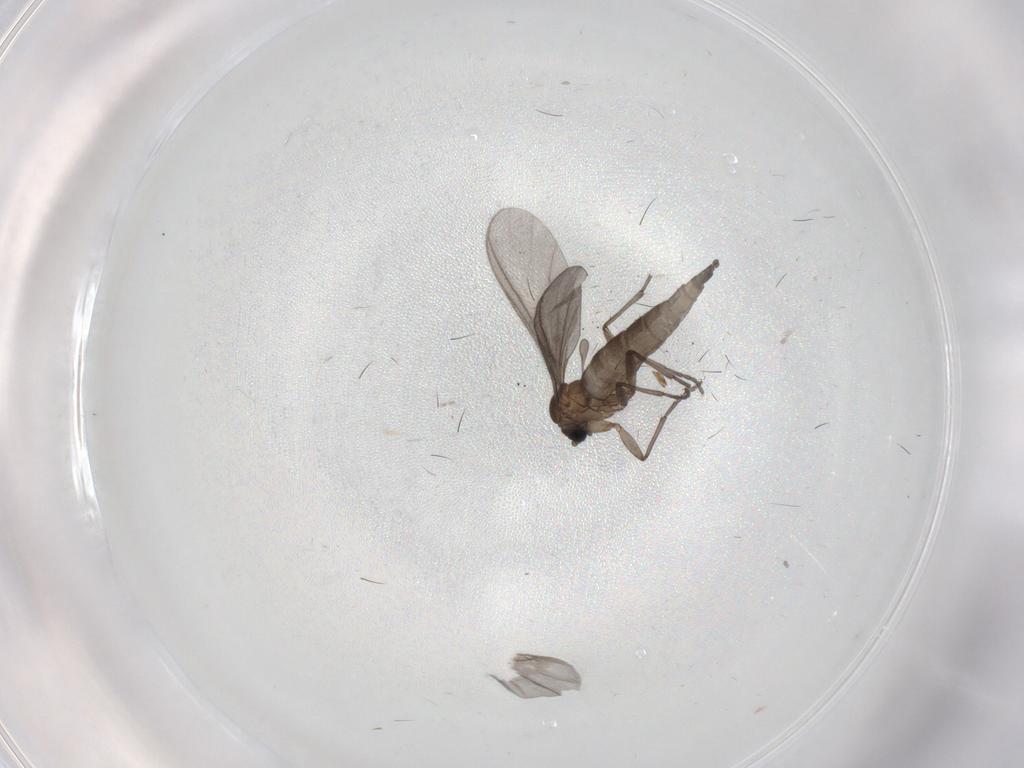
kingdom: Animalia
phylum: Arthropoda
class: Insecta
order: Diptera
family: Sciaridae
